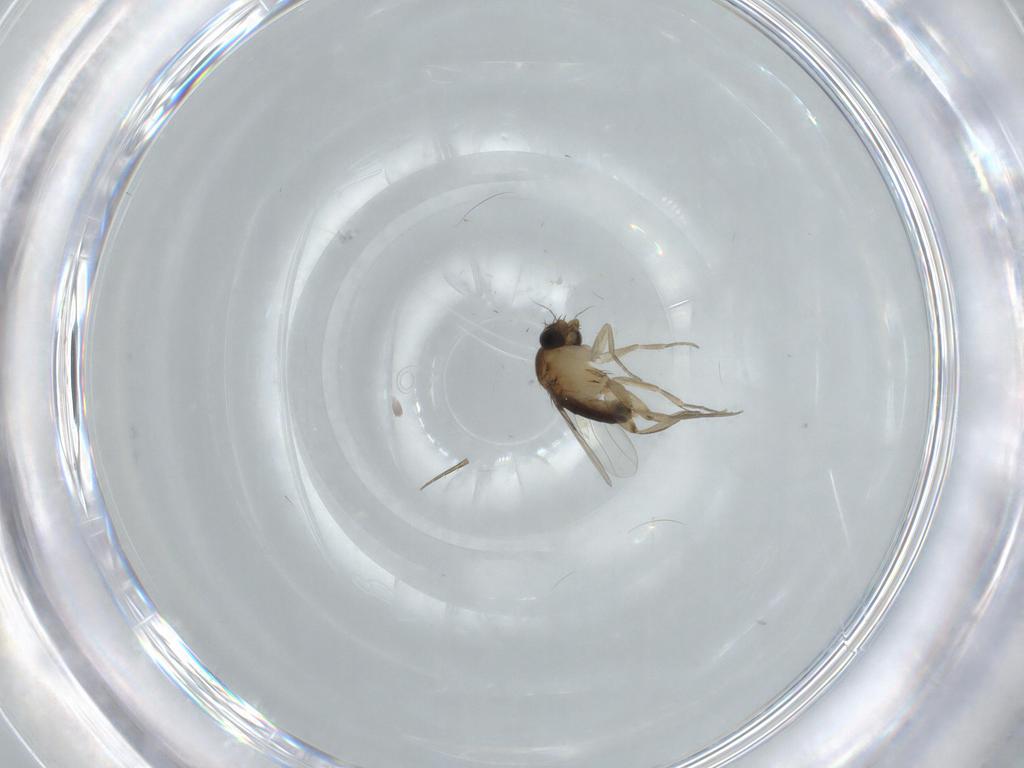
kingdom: Animalia
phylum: Arthropoda
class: Insecta
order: Diptera
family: Phoridae
